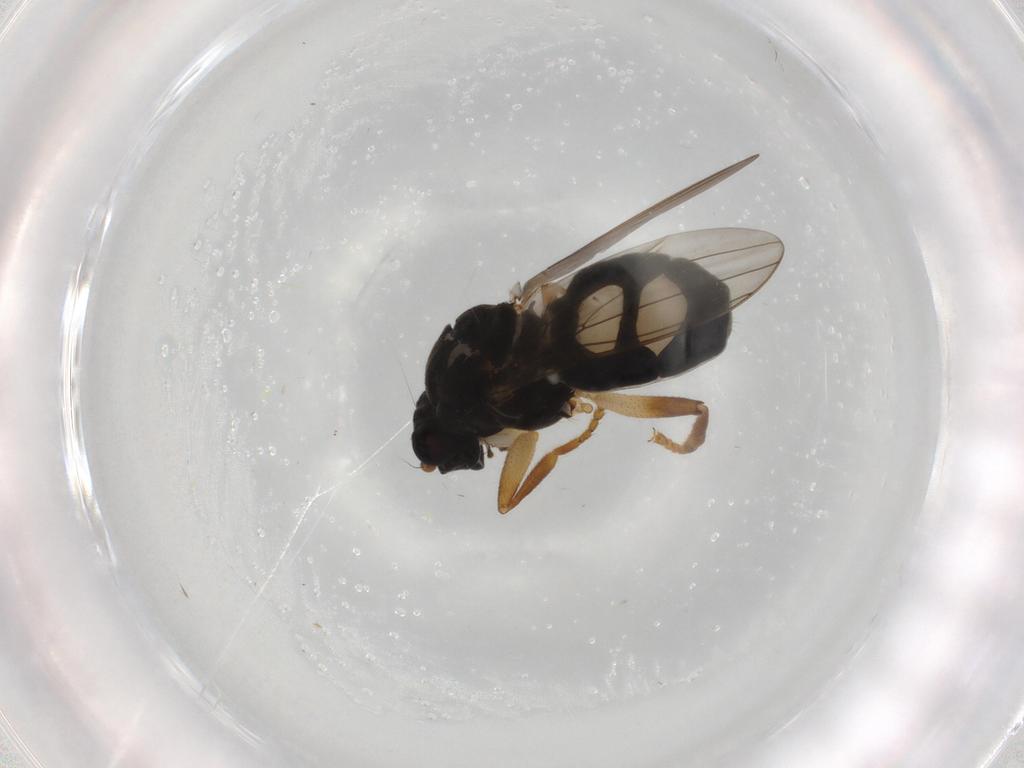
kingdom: Animalia
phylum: Arthropoda
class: Insecta
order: Diptera
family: Sphaeroceridae
